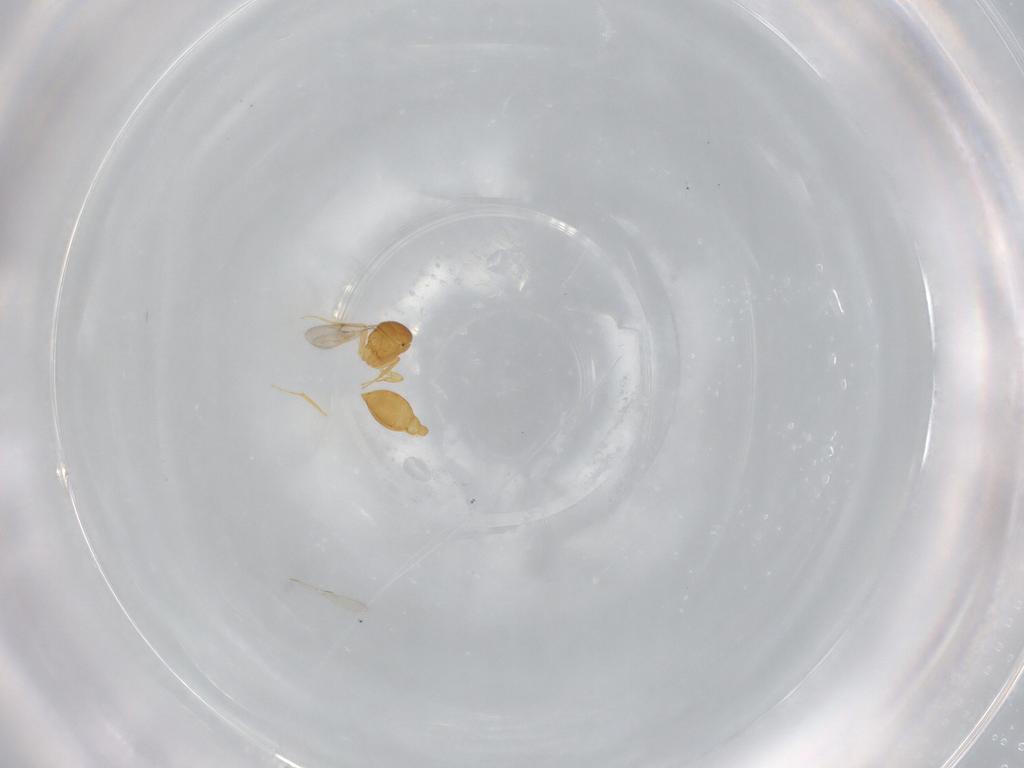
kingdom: Animalia
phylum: Arthropoda
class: Insecta
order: Hymenoptera
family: Scelionidae
